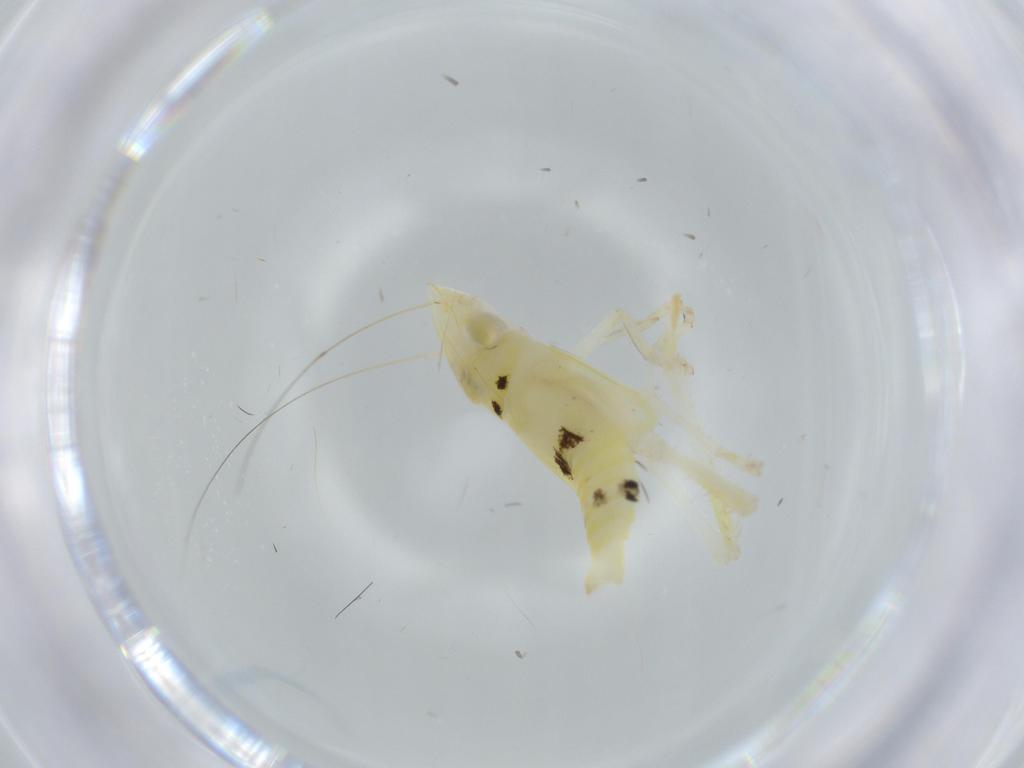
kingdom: Animalia
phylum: Arthropoda
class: Insecta
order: Hemiptera
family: Cicadellidae
